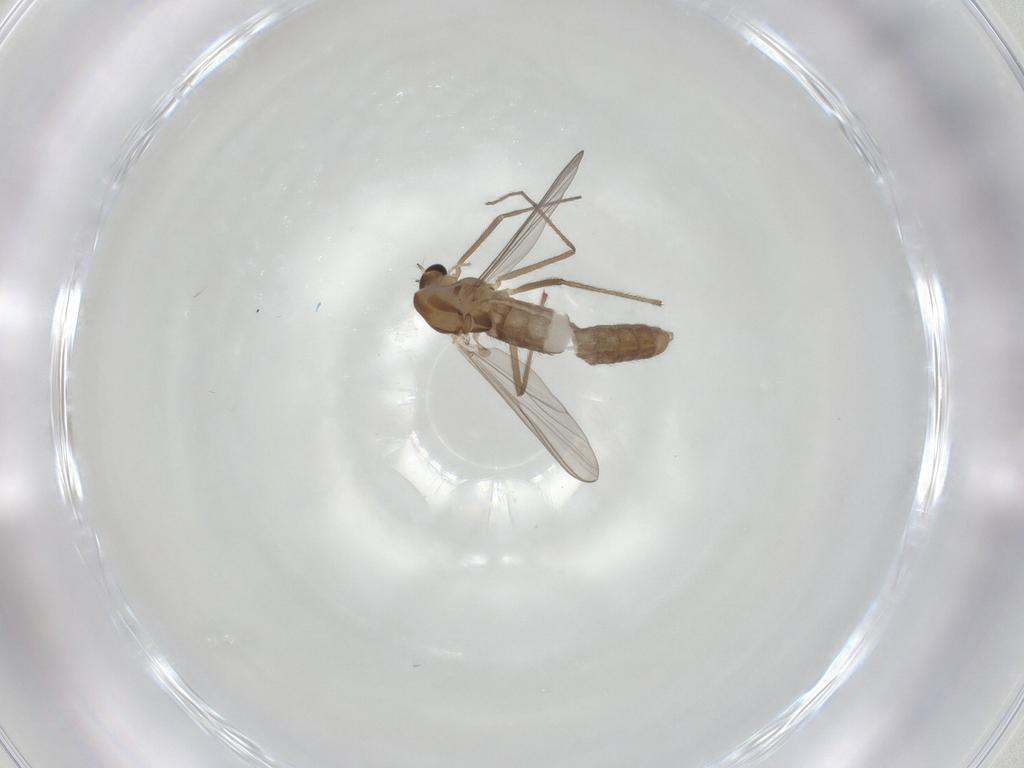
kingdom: Animalia
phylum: Arthropoda
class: Insecta
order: Diptera
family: Chironomidae
